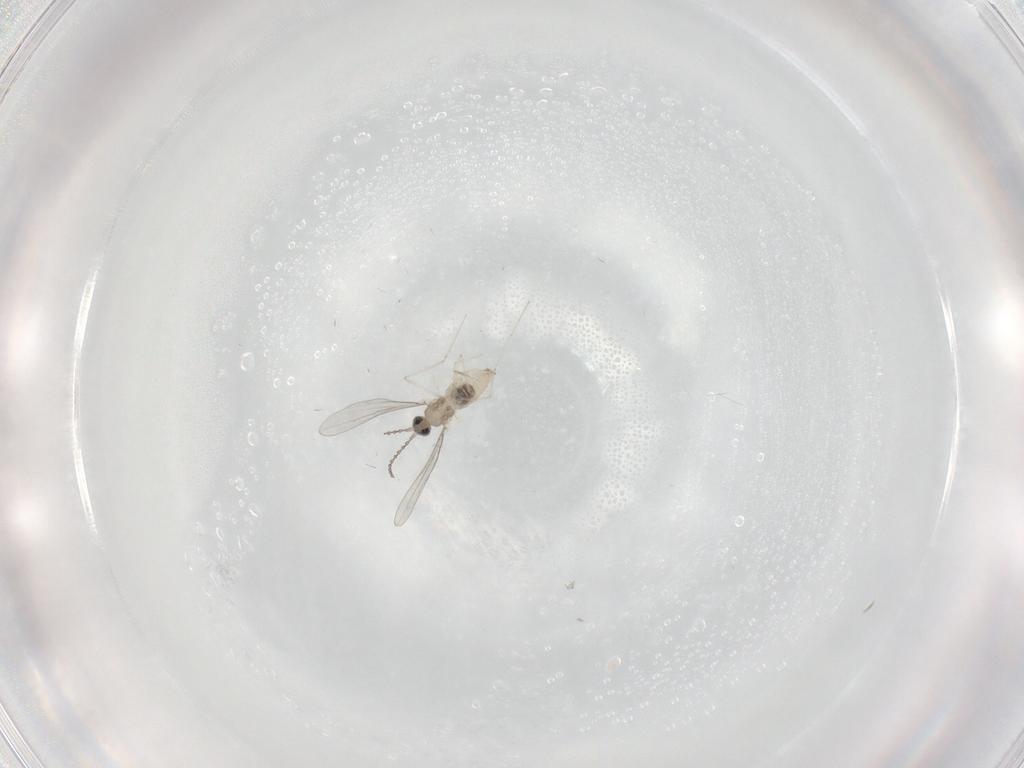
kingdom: Animalia
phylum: Arthropoda
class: Insecta
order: Diptera
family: Cecidomyiidae
